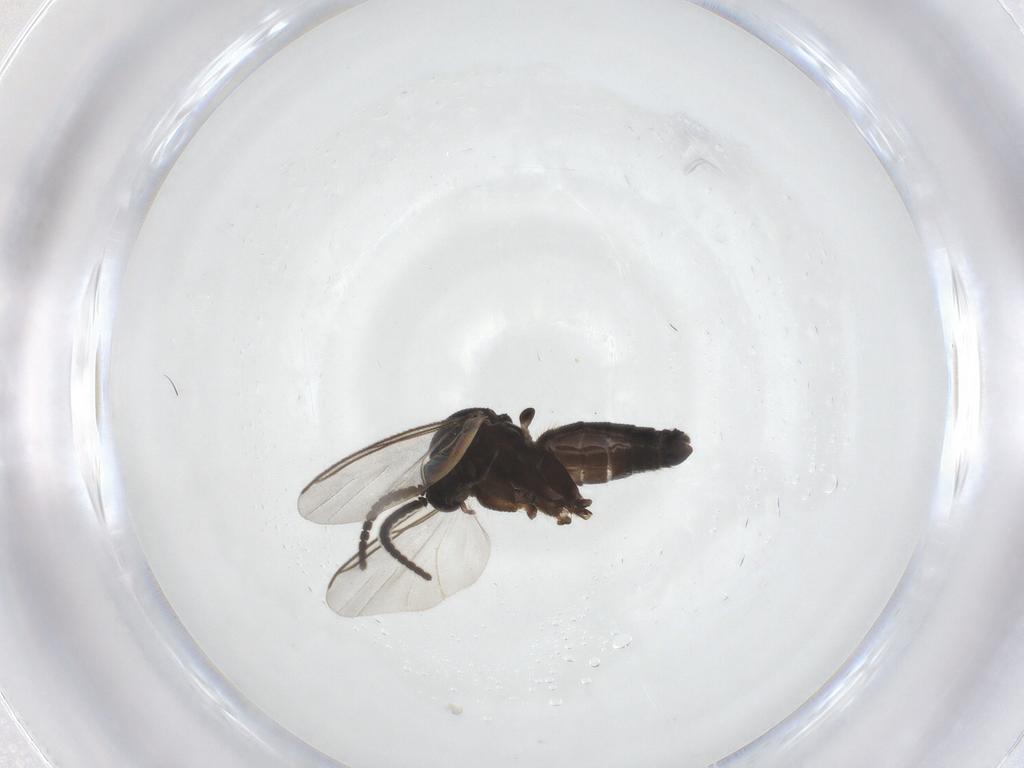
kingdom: Animalia
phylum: Arthropoda
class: Insecta
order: Diptera
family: Mycetophilidae
